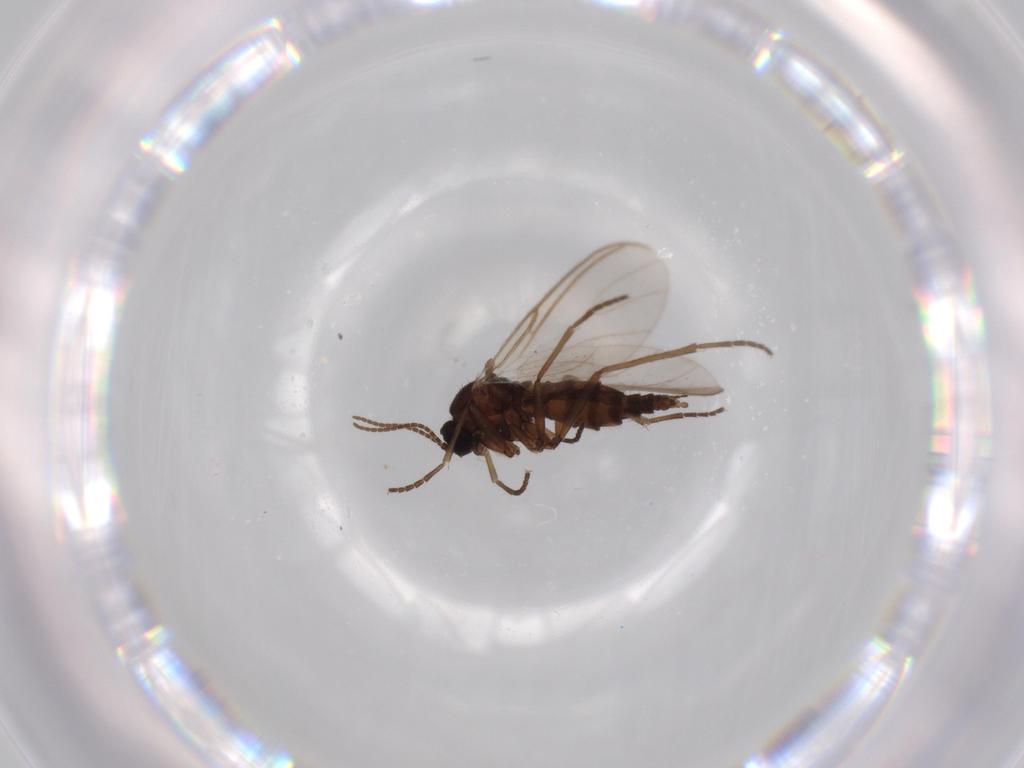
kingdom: Animalia
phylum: Arthropoda
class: Insecta
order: Diptera
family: Sciaridae
